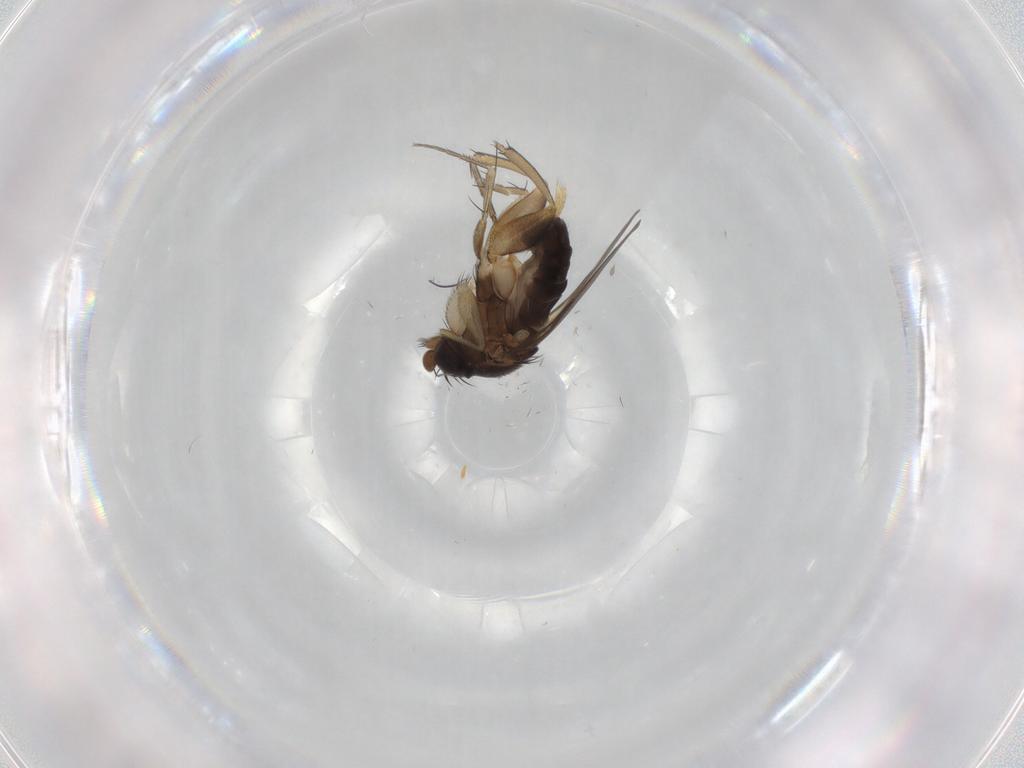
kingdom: Animalia
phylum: Arthropoda
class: Insecta
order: Diptera
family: Phoridae
